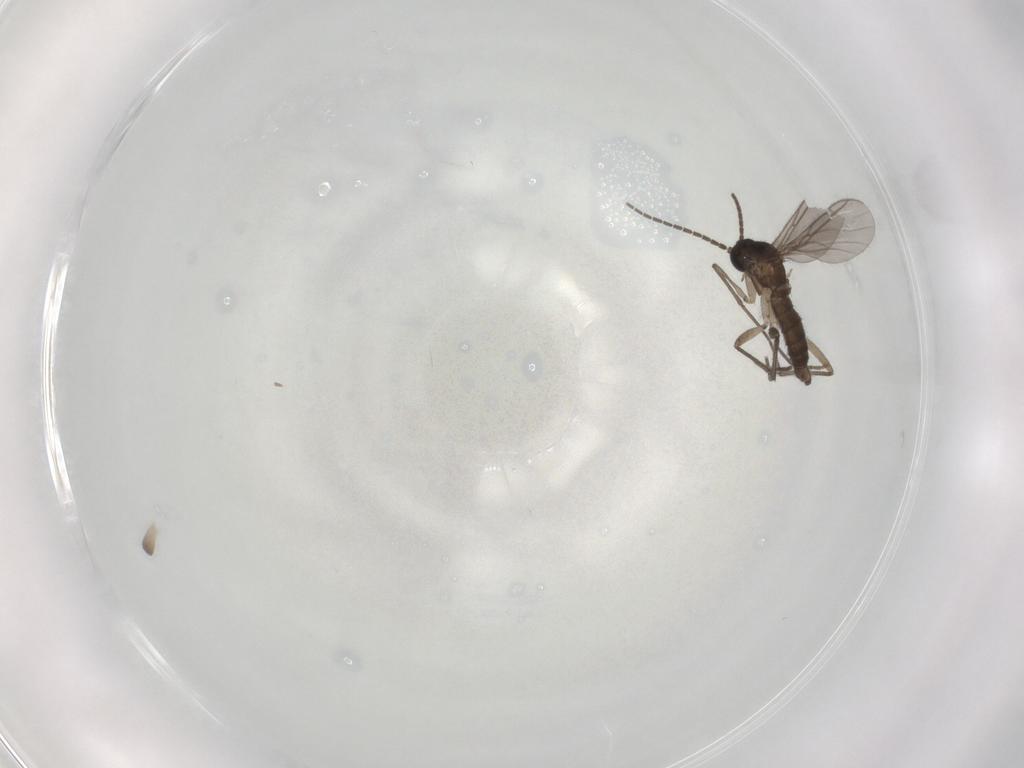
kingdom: Animalia
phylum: Arthropoda
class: Insecta
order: Diptera
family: Sciaridae
